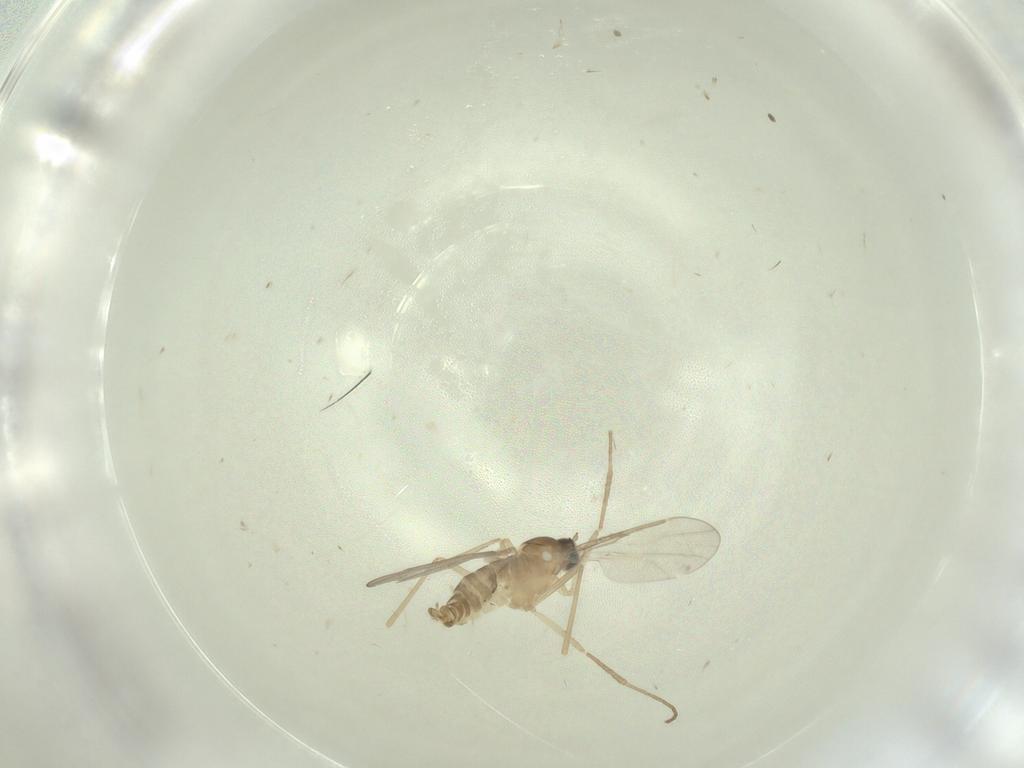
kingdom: Animalia
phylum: Arthropoda
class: Insecta
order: Diptera
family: Cecidomyiidae
